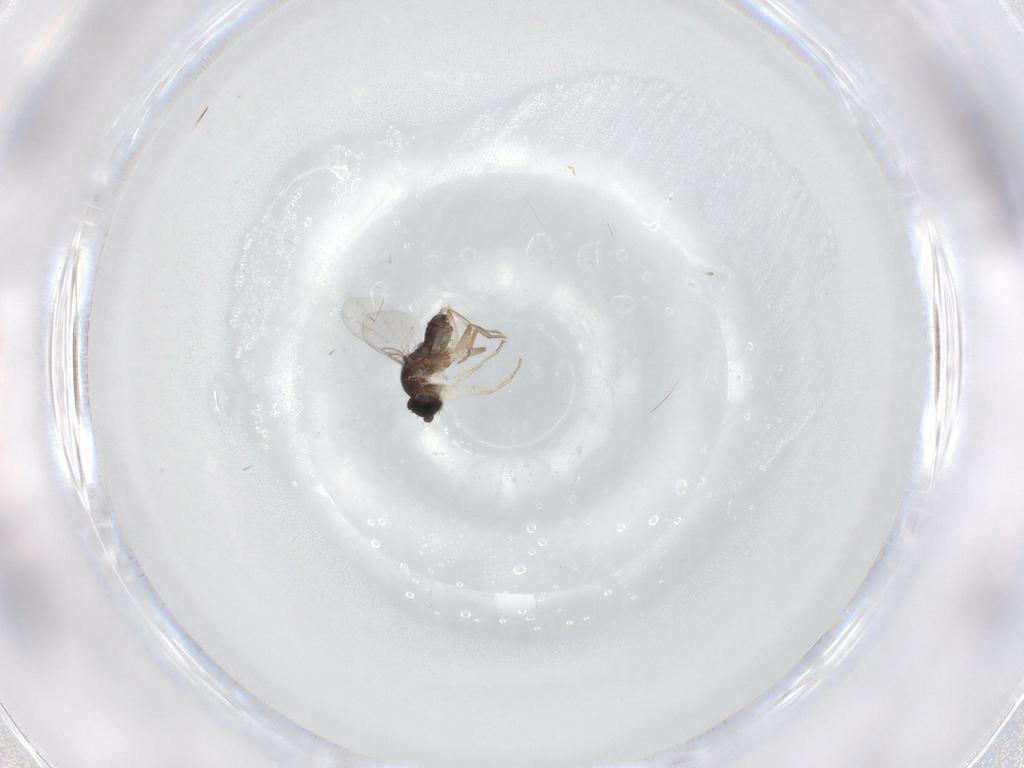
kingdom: Animalia
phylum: Arthropoda
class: Insecta
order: Diptera
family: Phoridae
